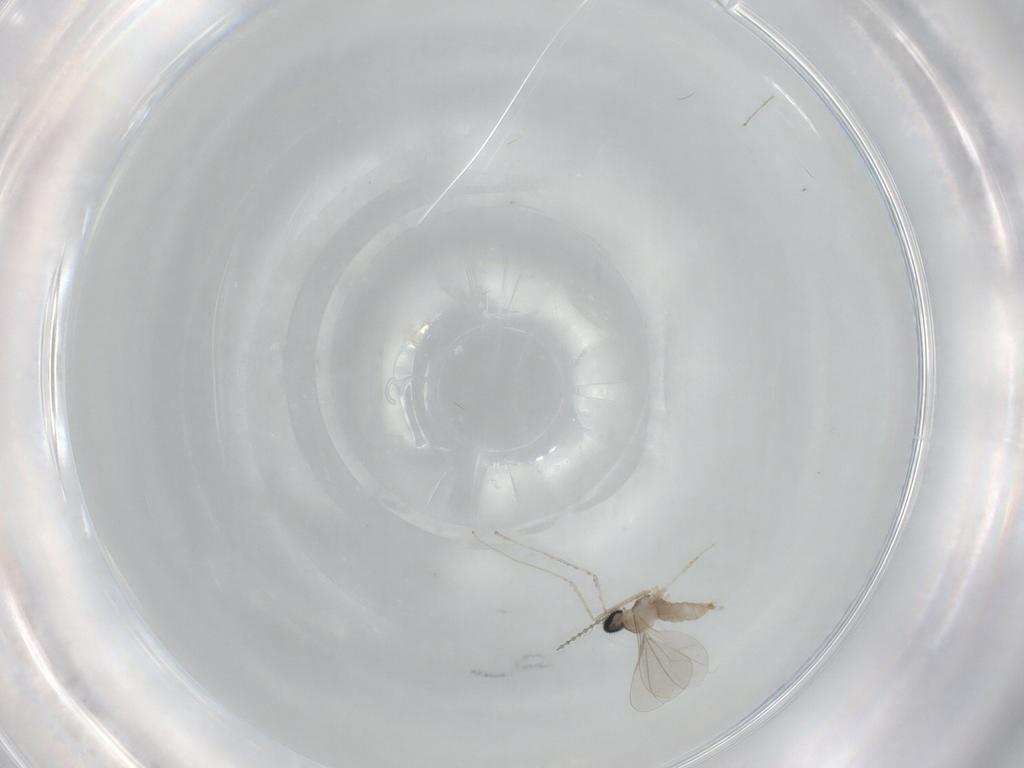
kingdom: Animalia
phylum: Arthropoda
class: Insecta
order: Diptera
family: Cecidomyiidae
